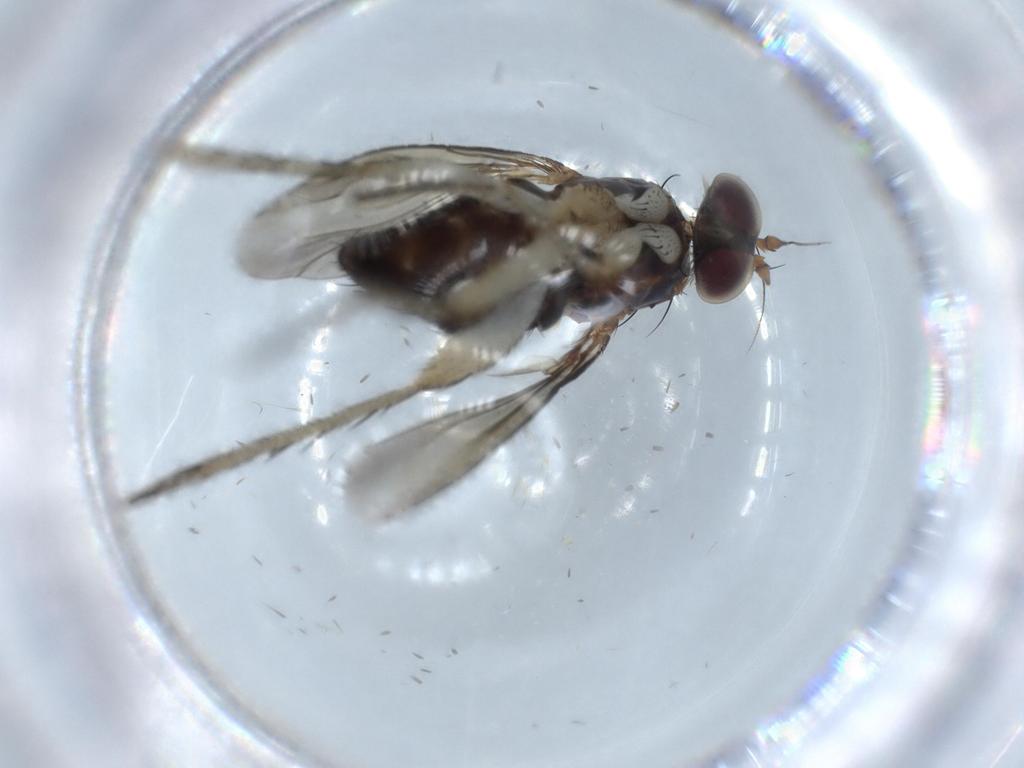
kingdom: Animalia
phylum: Arthropoda
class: Insecta
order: Diptera
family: Dolichopodidae
